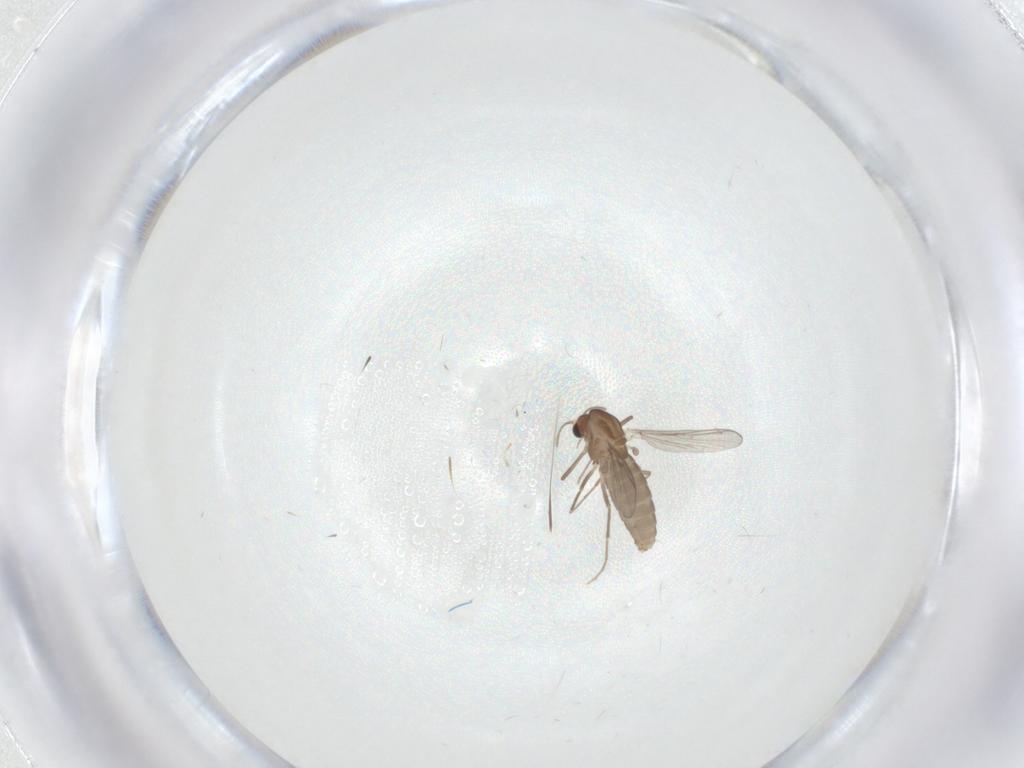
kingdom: Animalia
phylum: Arthropoda
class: Insecta
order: Diptera
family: Chironomidae
